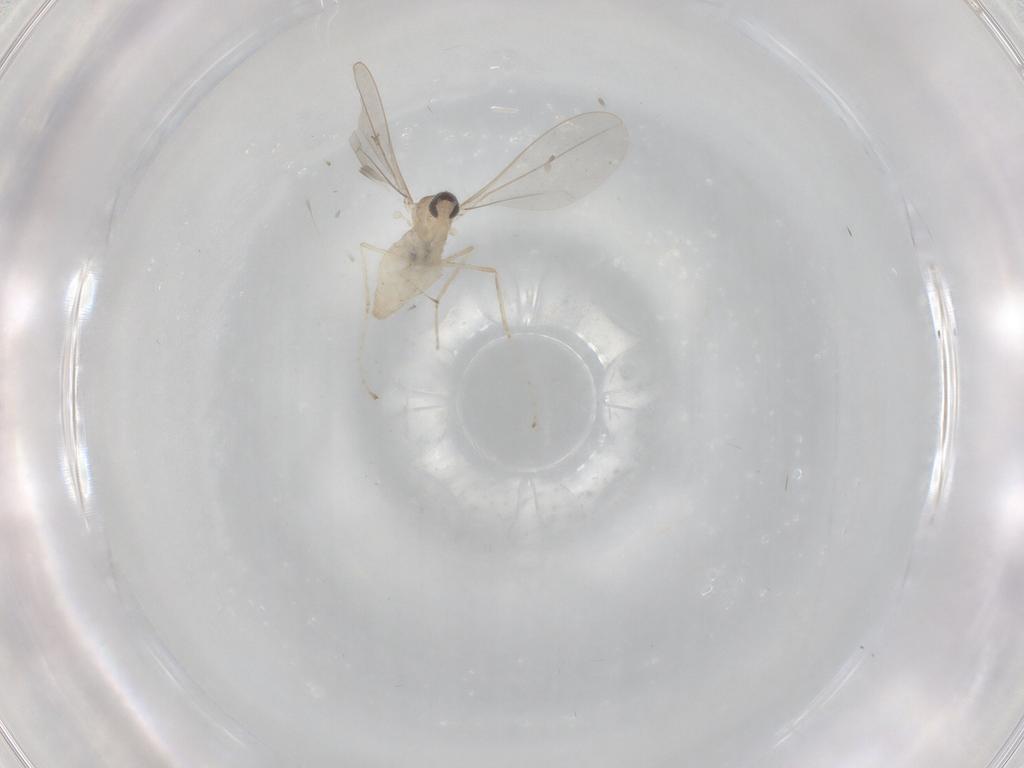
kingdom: Animalia
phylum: Arthropoda
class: Insecta
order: Diptera
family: Cecidomyiidae
